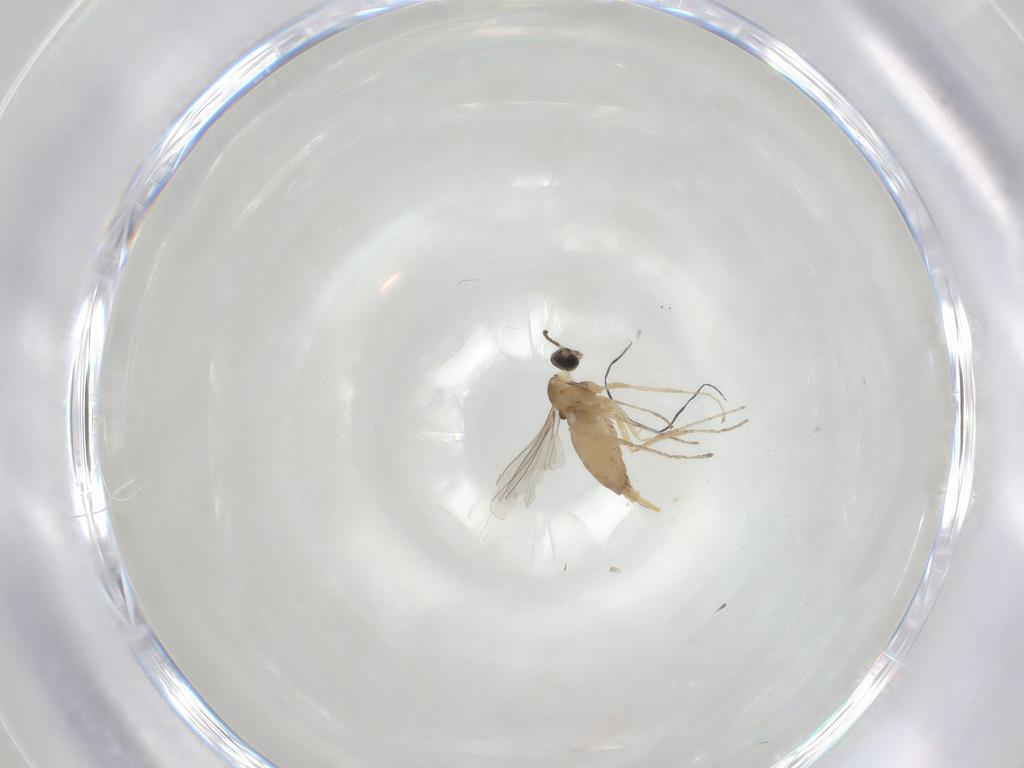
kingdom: Animalia
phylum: Arthropoda
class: Insecta
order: Diptera
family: Cecidomyiidae
